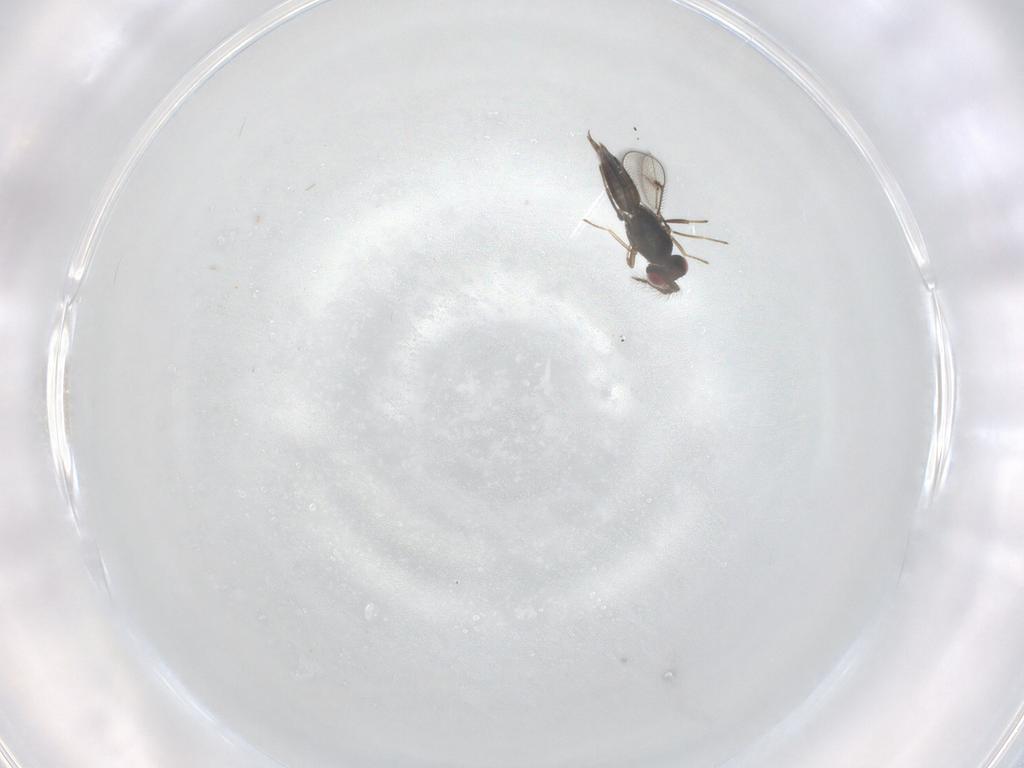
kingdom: Animalia
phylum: Arthropoda
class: Insecta
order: Hymenoptera
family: Eulophidae
